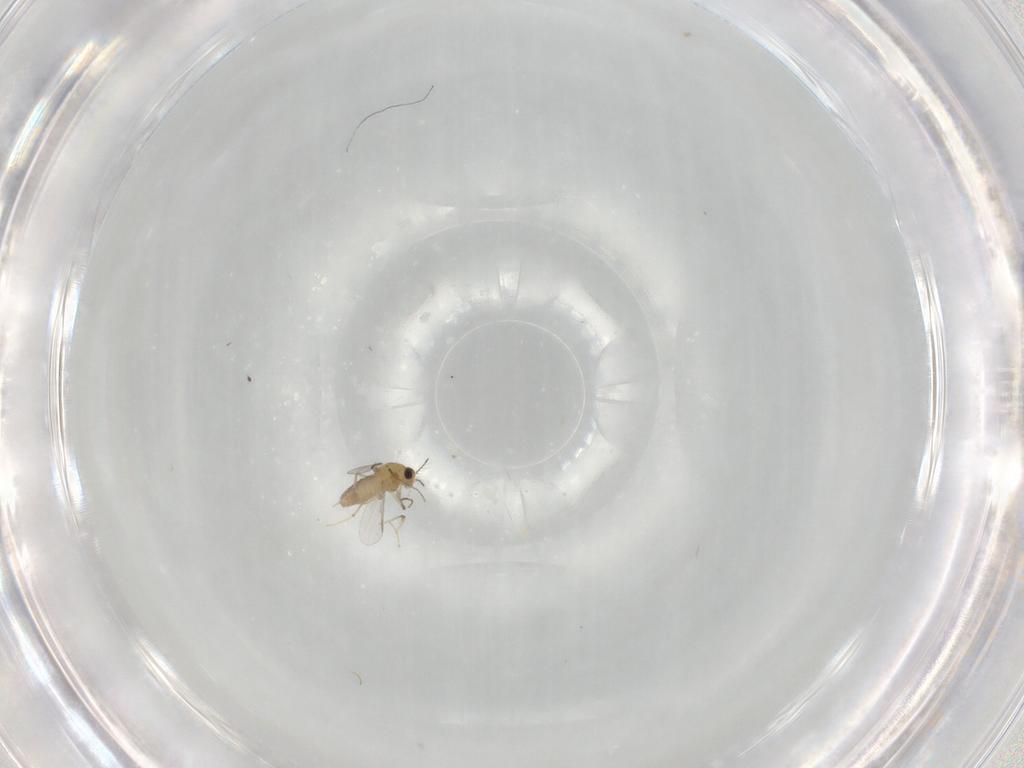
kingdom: Animalia
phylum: Arthropoda
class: Insecta
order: Diptera
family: Chironomidae
